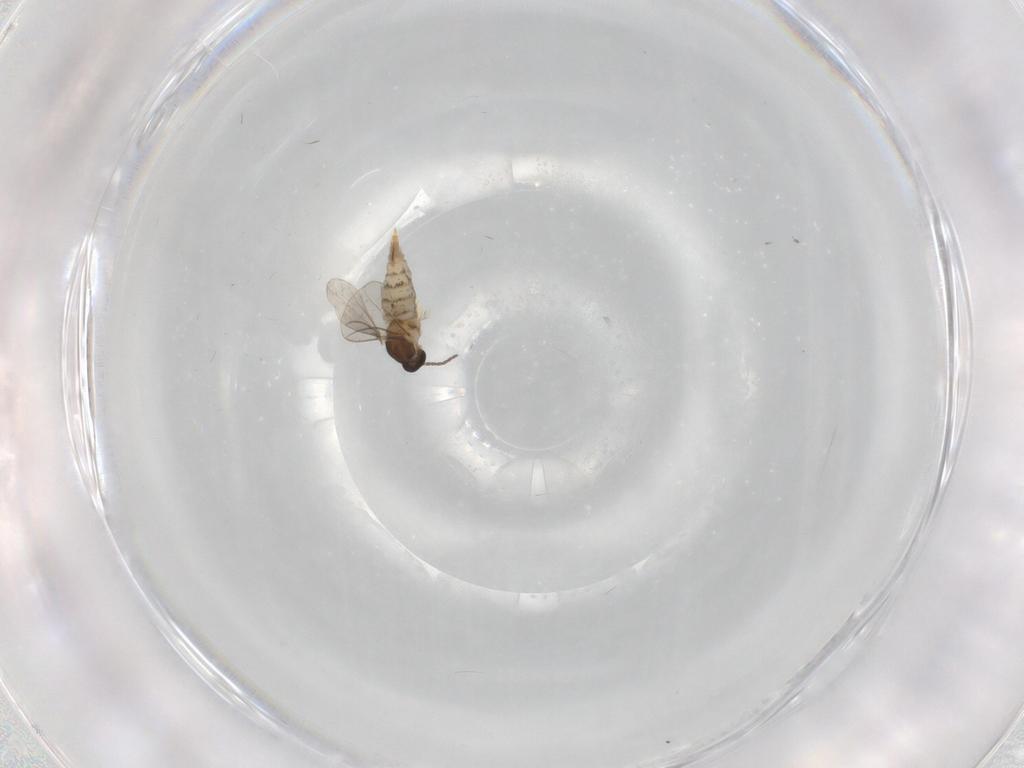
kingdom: Animalia
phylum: Arthropoda
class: Insecta
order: Diptera
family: Cecidomyiidae
